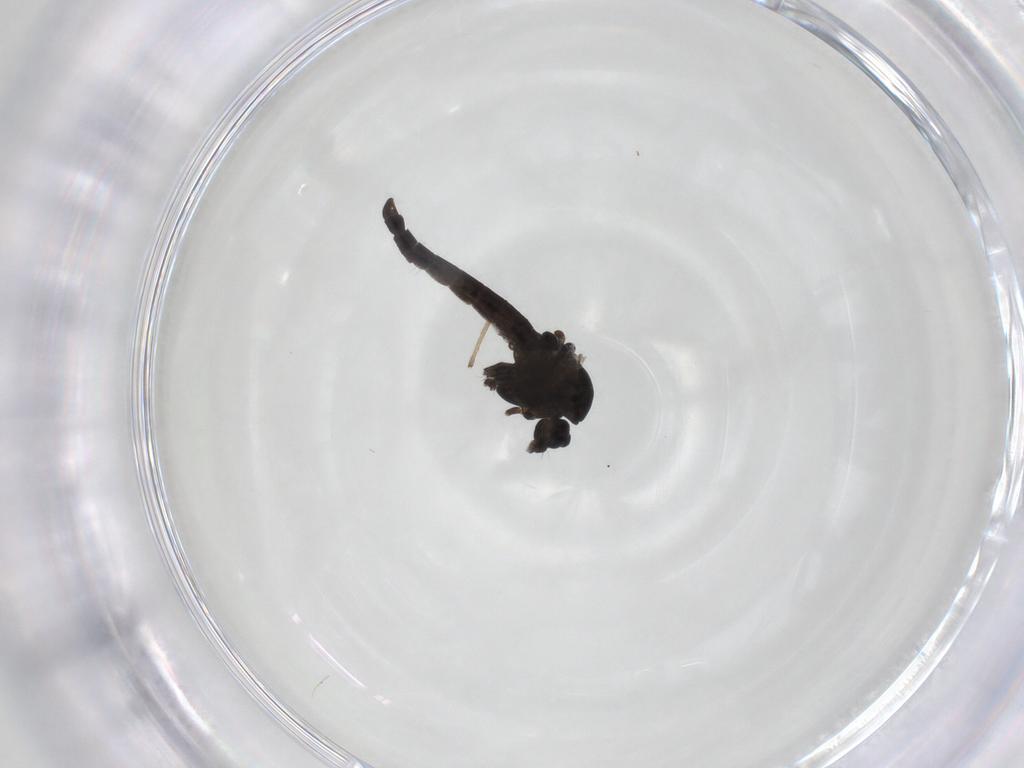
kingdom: Animalia
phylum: Arthropoda
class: Insecta
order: Diptera
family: Chironomidae
